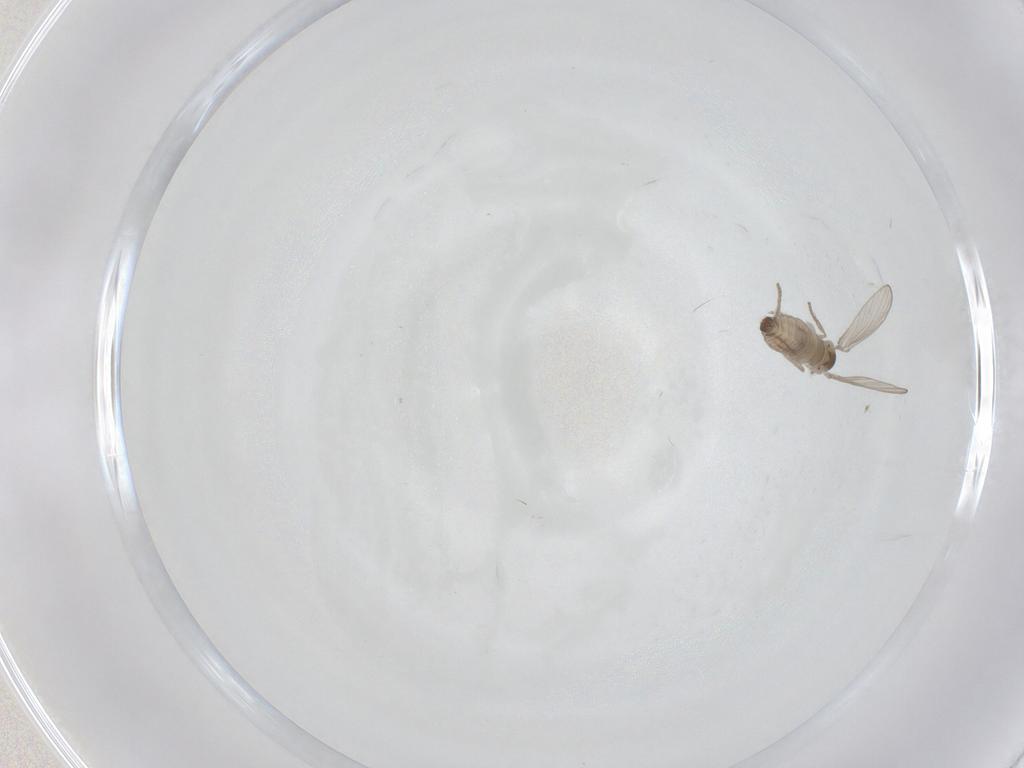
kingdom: Animalia
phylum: Arthropoda
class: Insecta
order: Diptera
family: Psychodidae
